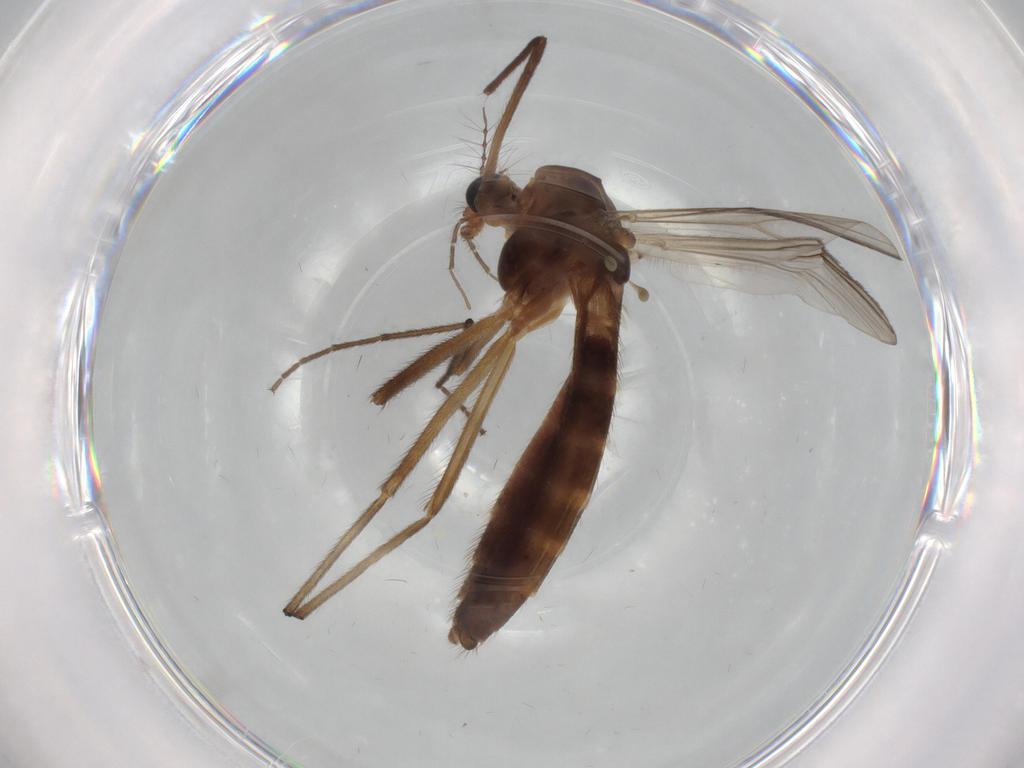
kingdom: Animalia
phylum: Arthropoda
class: Insecta
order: Diptera
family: Chironomidae
